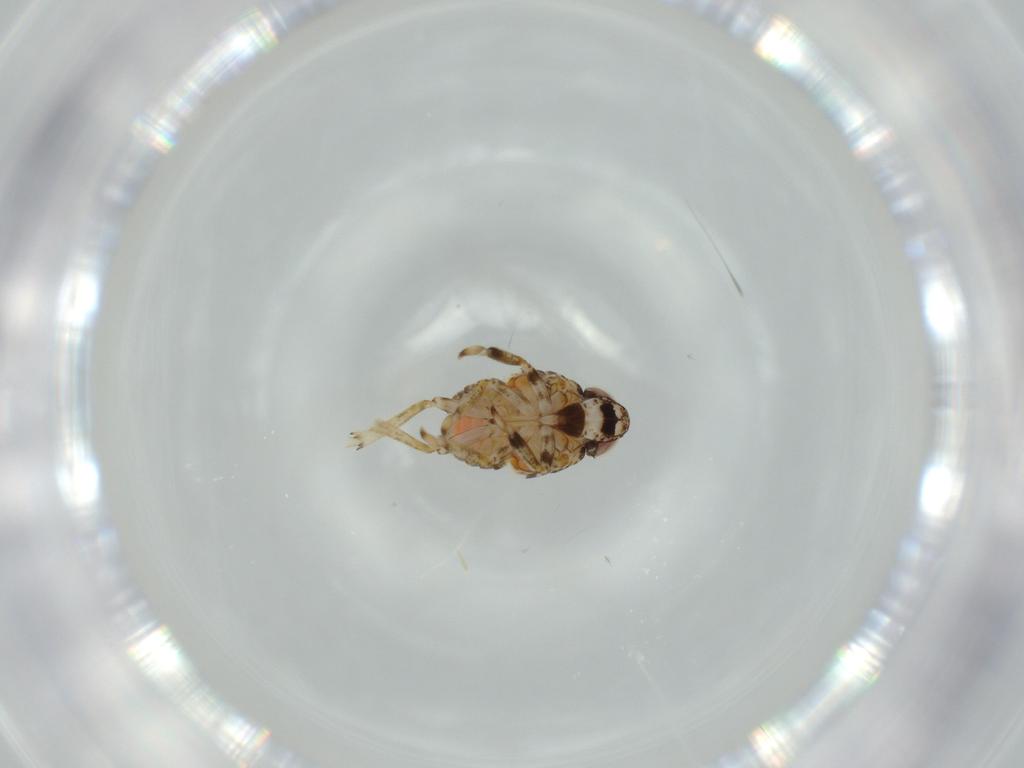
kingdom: Animalia
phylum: Arthropoda
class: Insecta
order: Hemiptera
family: Issidae
